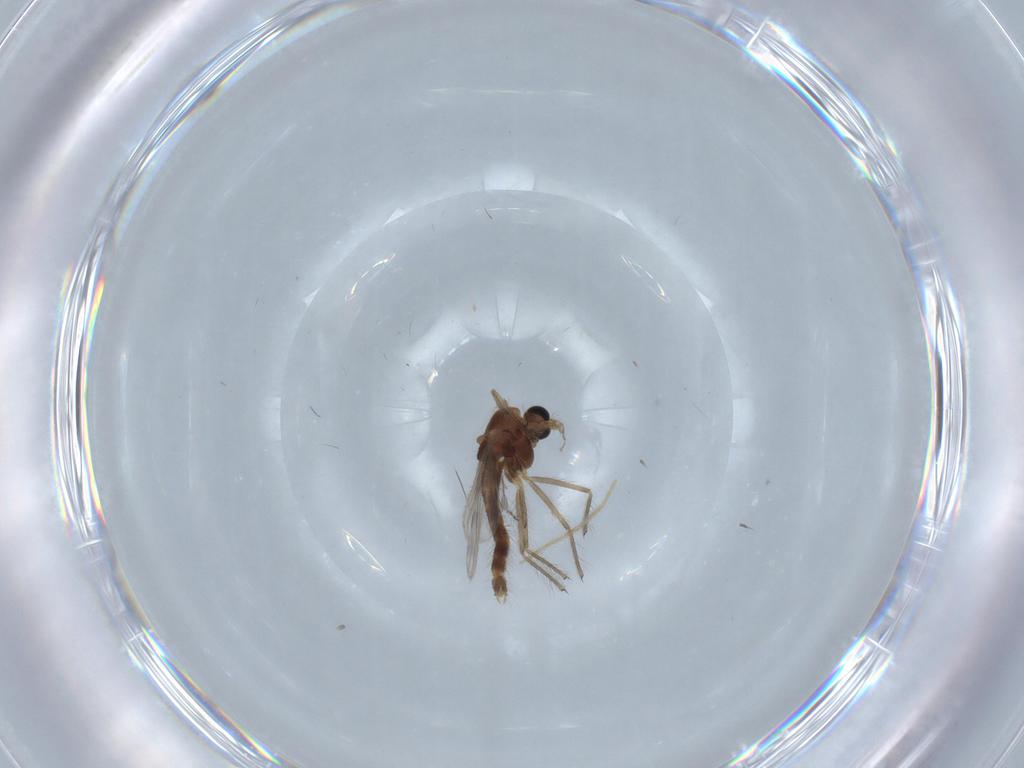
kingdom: Animalia
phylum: Arthropoda
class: Insecta
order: Diptera
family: Chironomidae
